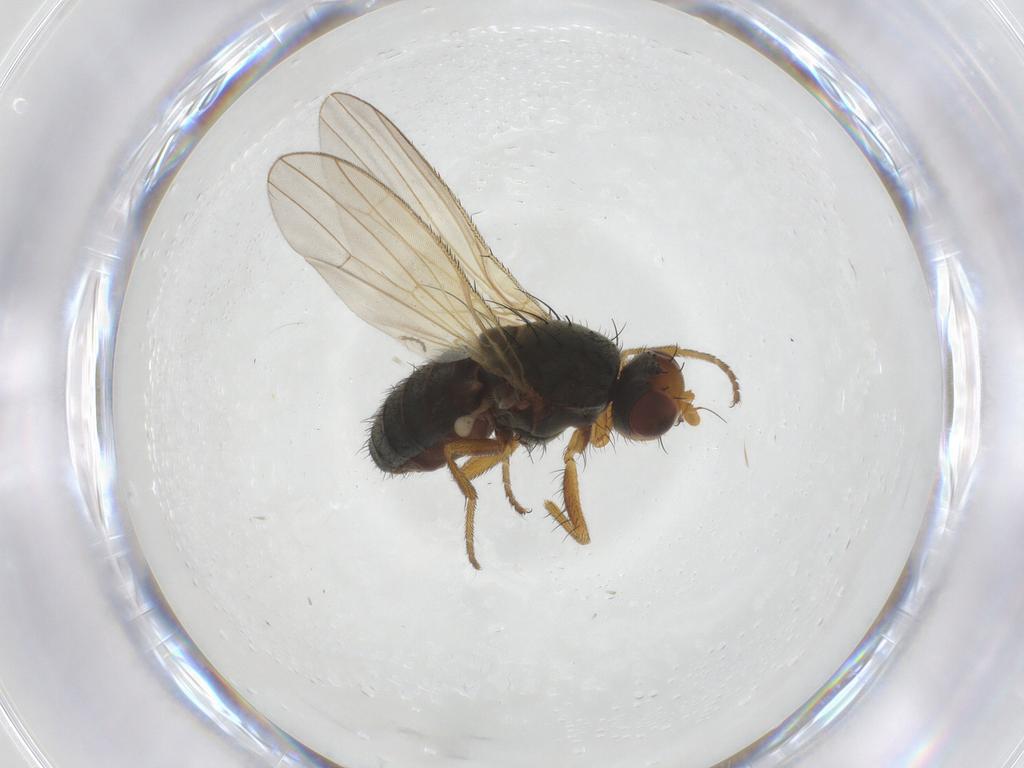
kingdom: Animalia
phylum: Arthropoda
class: Insecta
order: Diptera
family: Heleomyzidae
